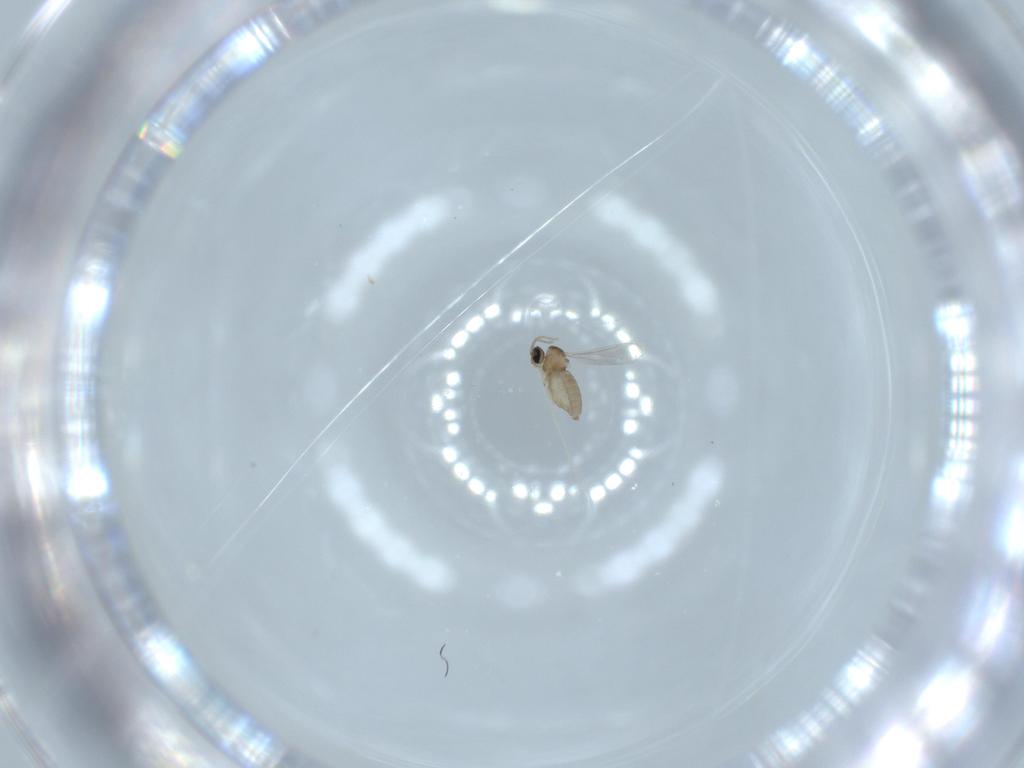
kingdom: Animalia
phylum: Arthropoda
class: Insecta
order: Diptera
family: Cecidomyiidae
